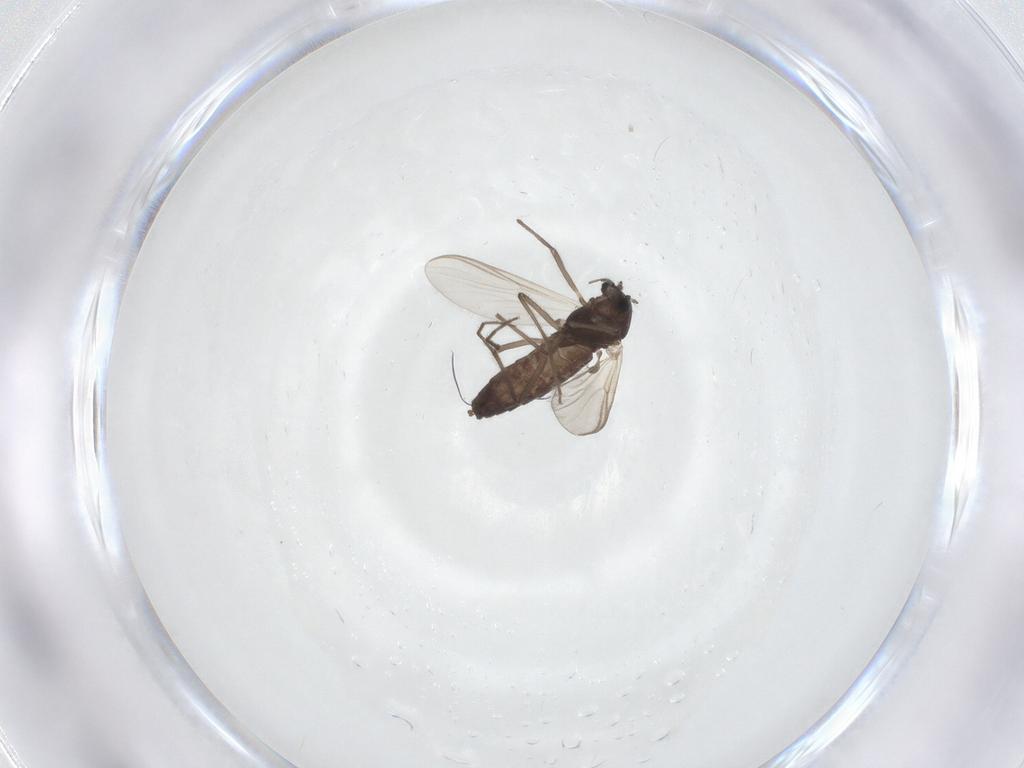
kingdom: Animalia
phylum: Arthropoda
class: Insecta
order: Diptera
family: Chironomidae
